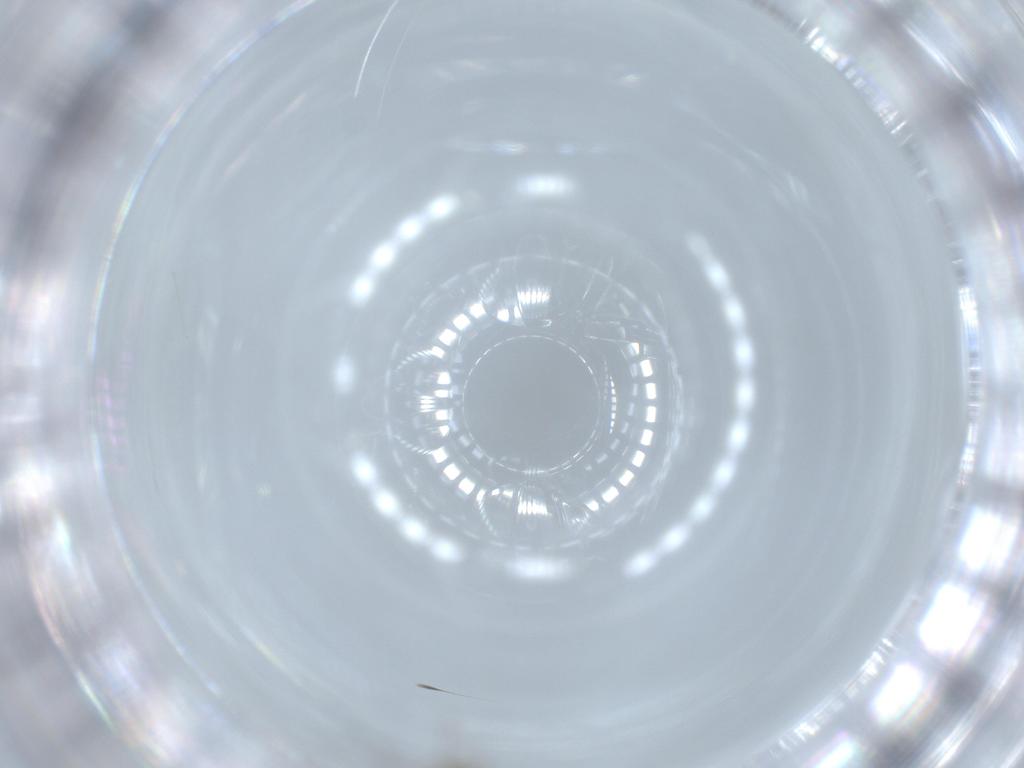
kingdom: Animalia
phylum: Arthropoda
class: Insecta
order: Diptera
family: Cecidomyiidae
